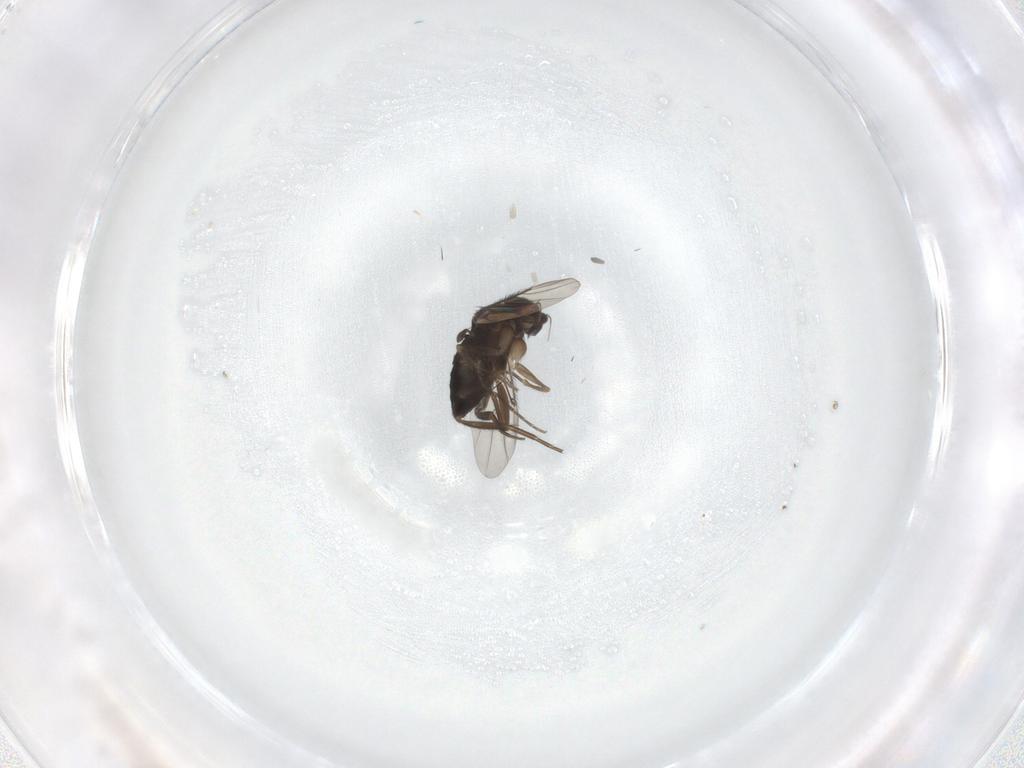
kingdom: Animalia
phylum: Arthropoda
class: Insecta
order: Diptera
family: Phoridae
